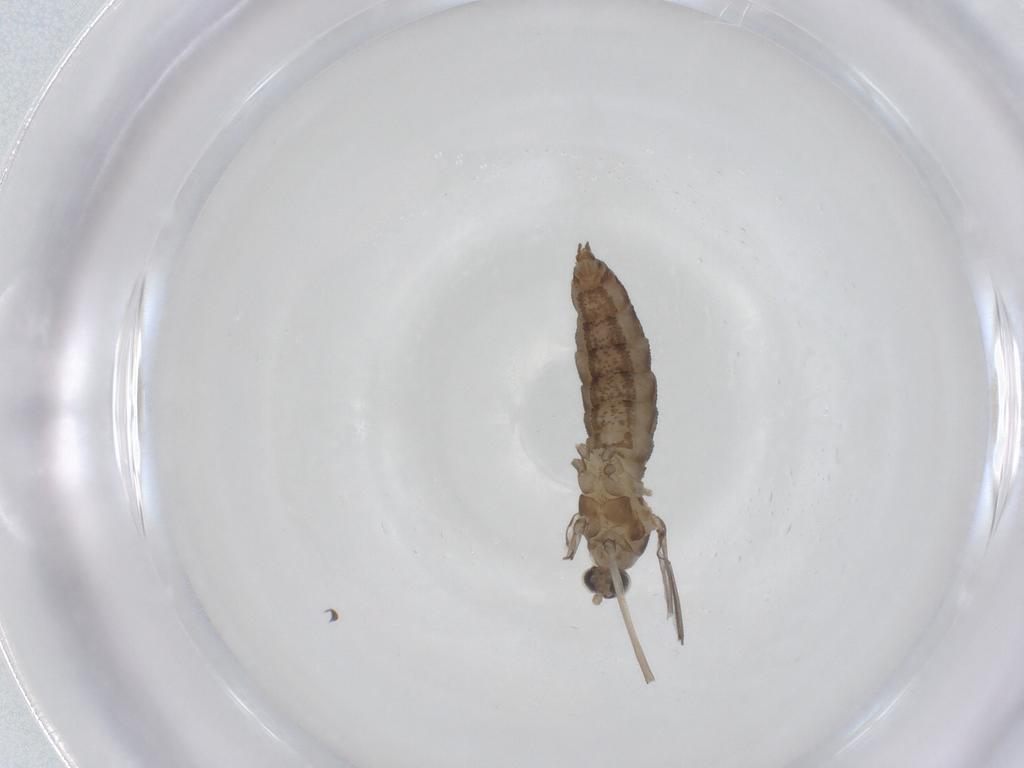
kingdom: Animalia
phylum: Arthropoda
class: Insecta
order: Diptera
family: Cecidomyiidae
